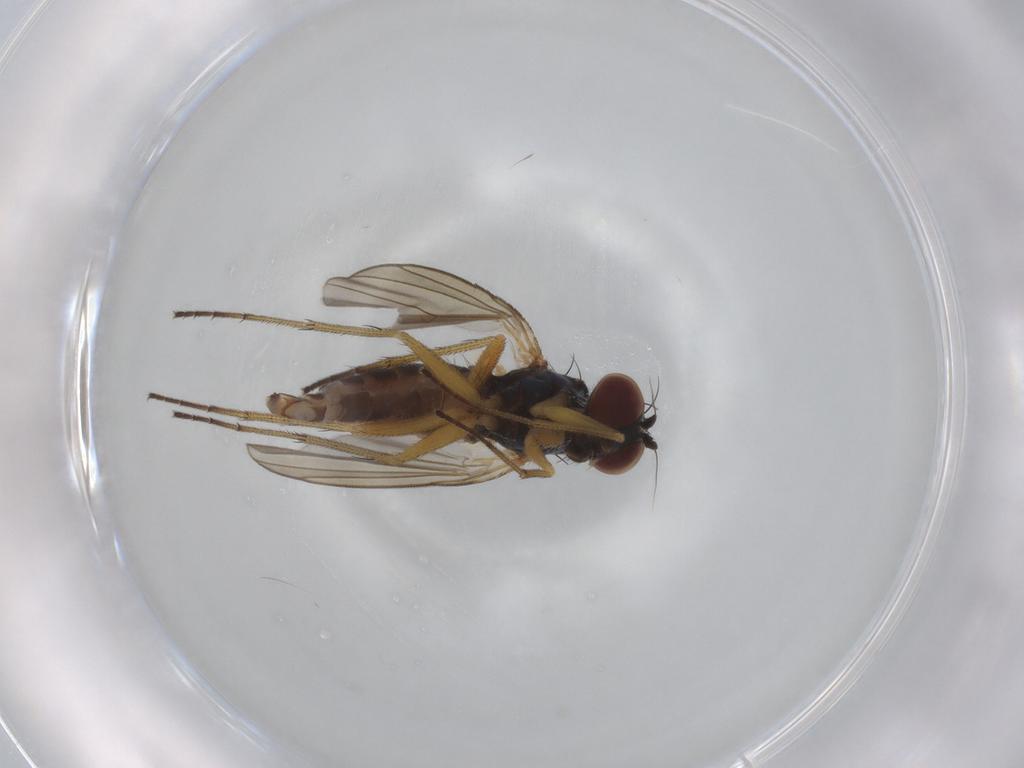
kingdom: Animalia
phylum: Arthropoda
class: Insecta
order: Diptera
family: Dolichopodidae
